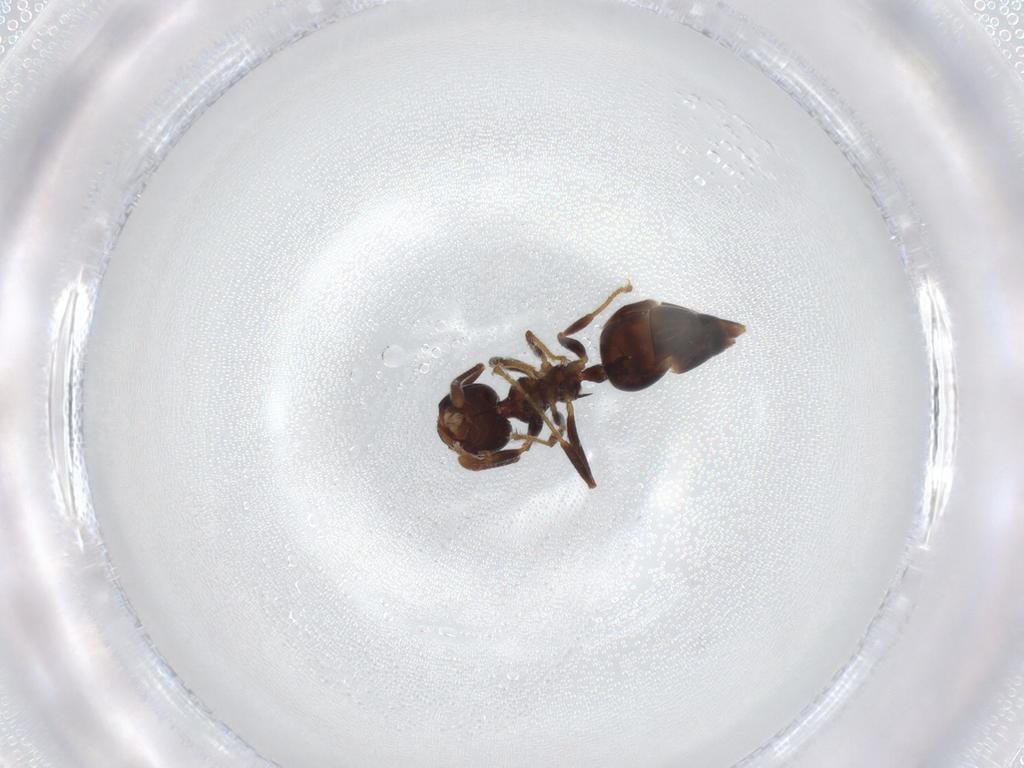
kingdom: Animalia
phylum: Arthropoda
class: Insecta
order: Hymenoptera
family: Formicidae
